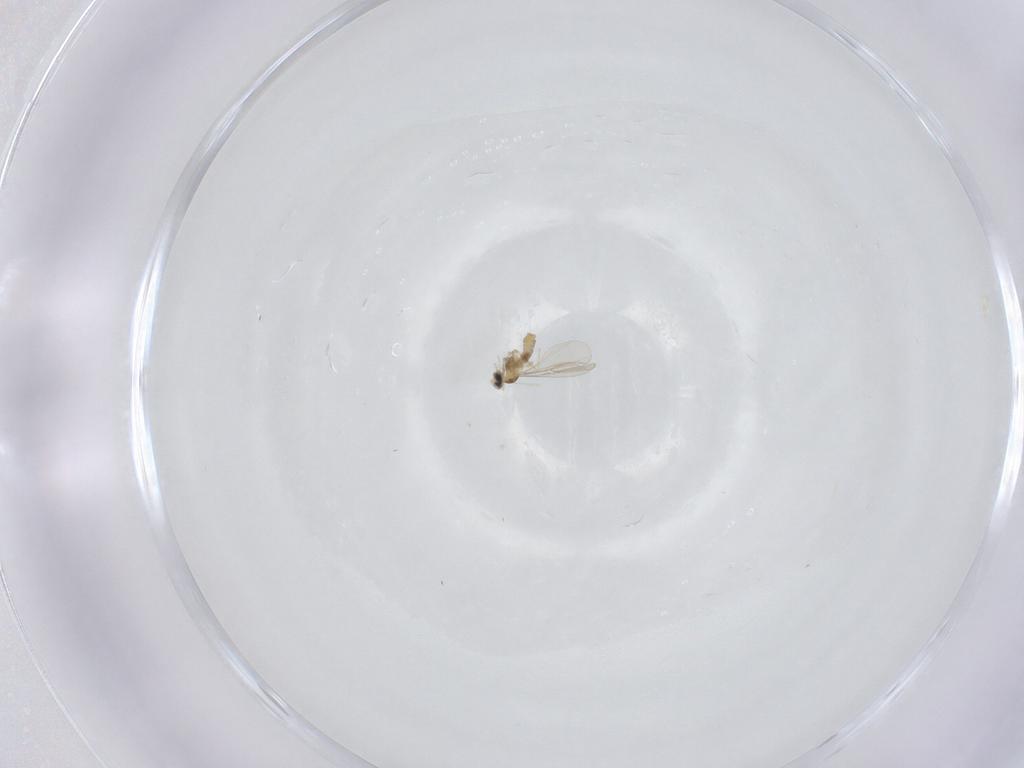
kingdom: Animalia
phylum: Arthropoda
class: Insecta
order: Diptera
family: Cecidomyiidae
